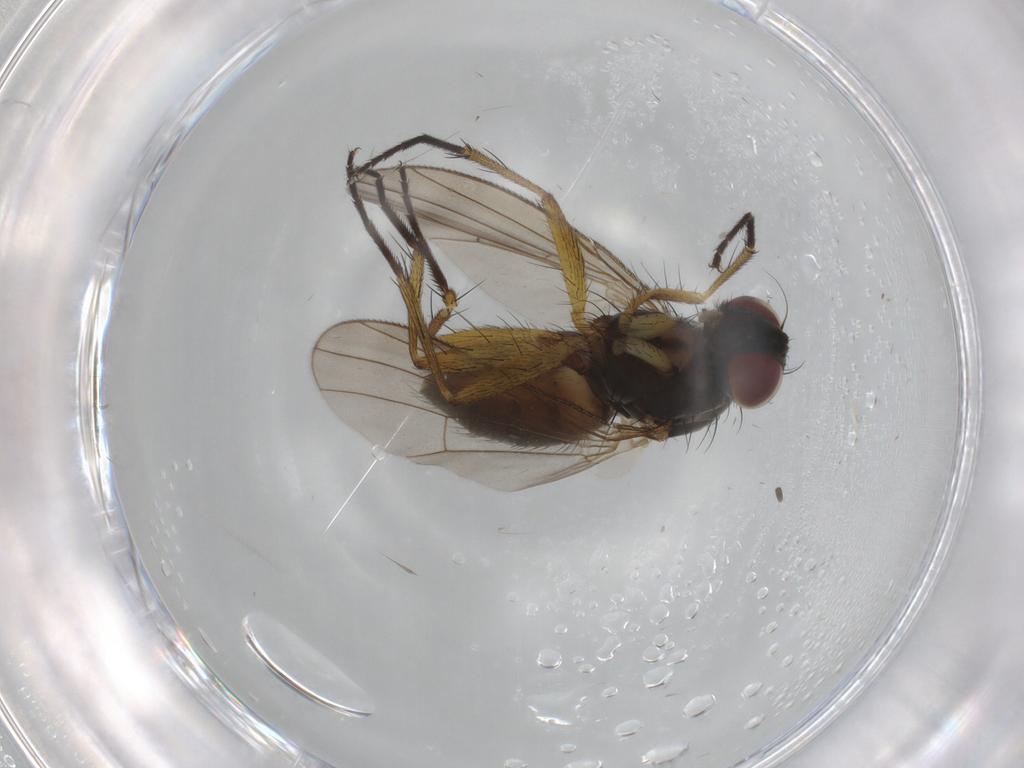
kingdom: Animalia
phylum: Arthropoda
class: Insecta
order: Diptera
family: Muscidae
